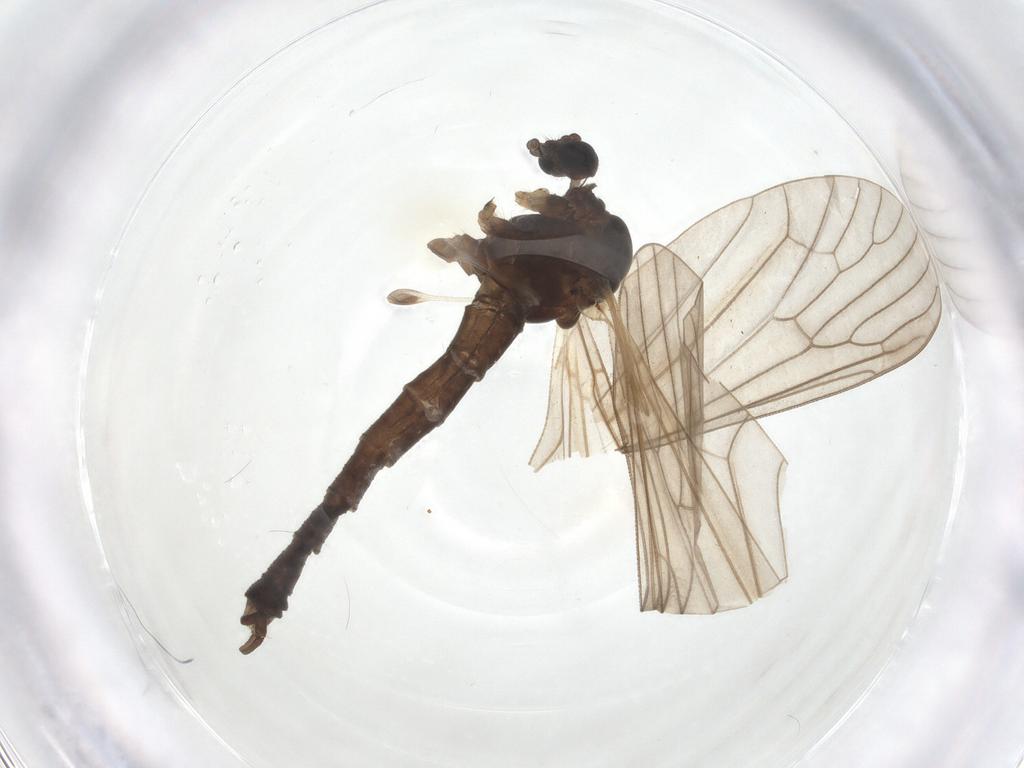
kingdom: Animalia
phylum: Arthropoda
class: Insecta
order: Diptera
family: Trichoceridae
